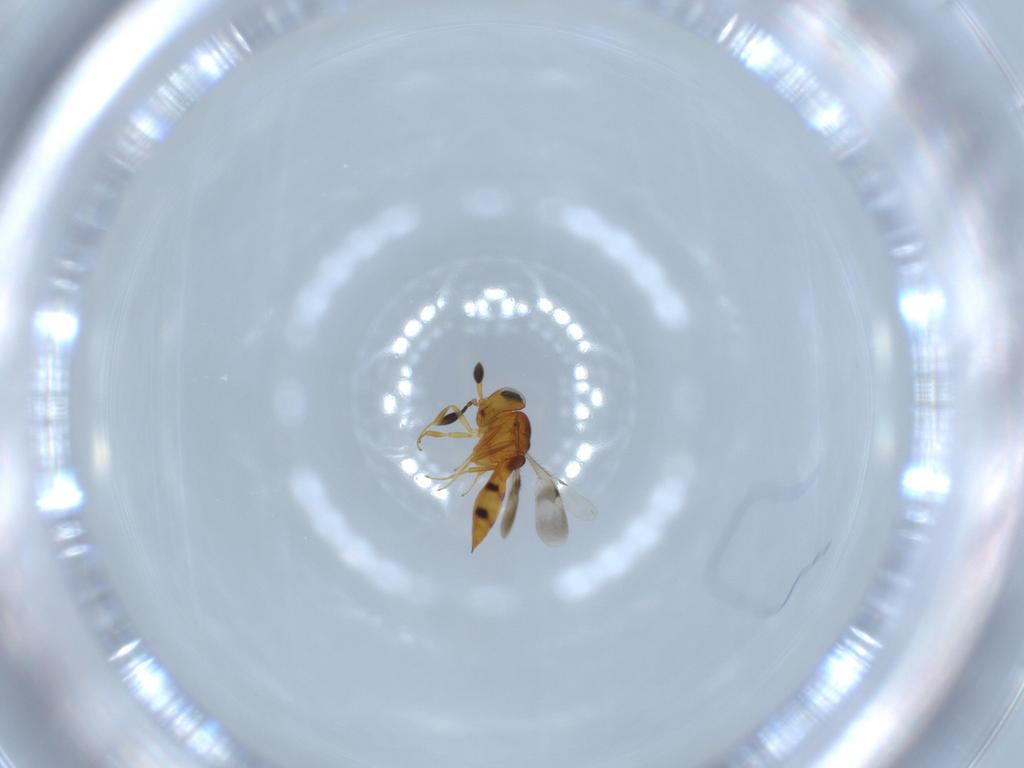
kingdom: Animalia
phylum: Arthropoda
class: Insecta
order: Hymenoptera
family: Scelionidae
